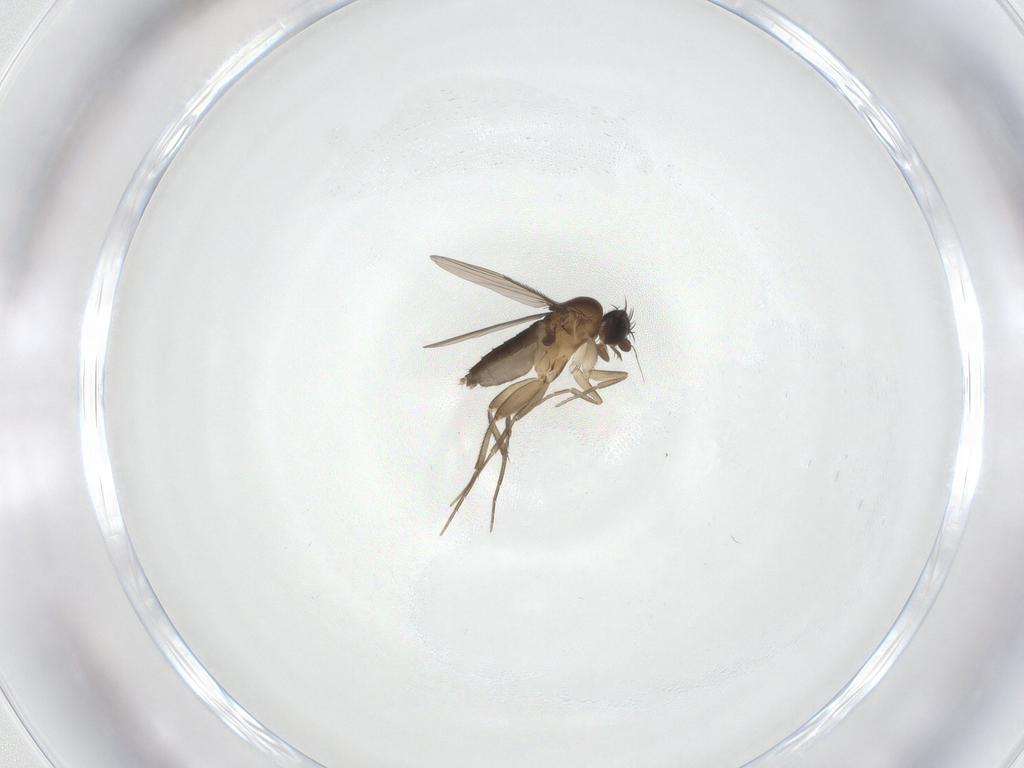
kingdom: Animalia
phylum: Arthropoda
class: Insecta
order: Diptera
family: Phoridae
